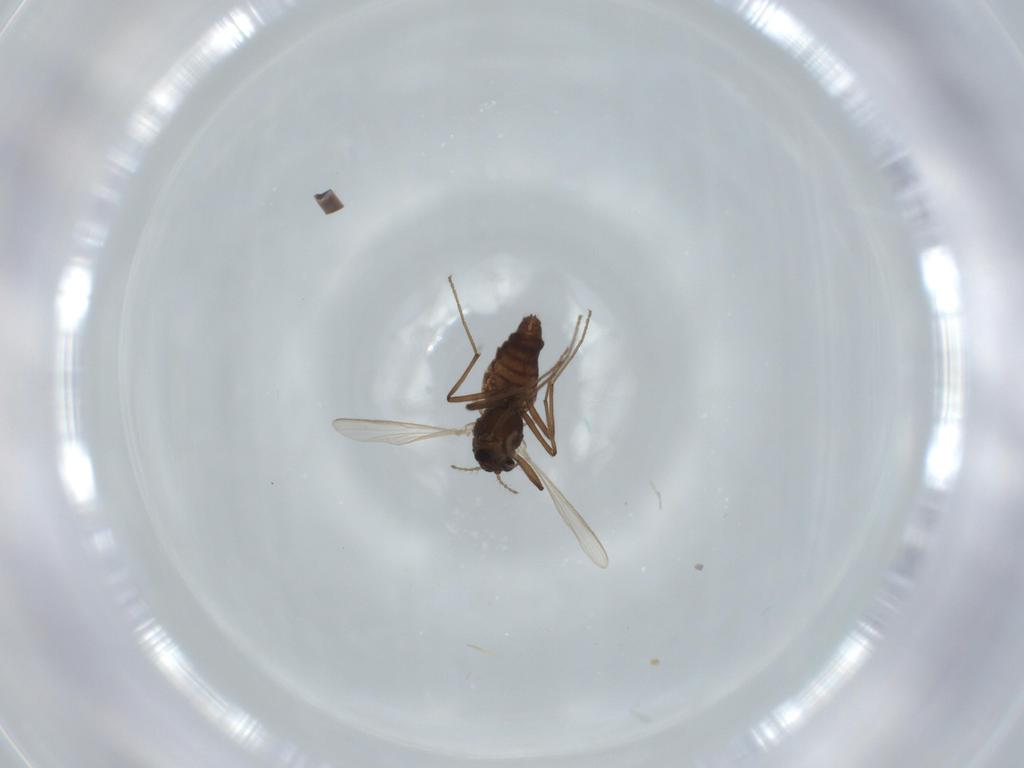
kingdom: Animalia
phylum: Arthropoda
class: Insecta
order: Diptera
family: Chironomidae
